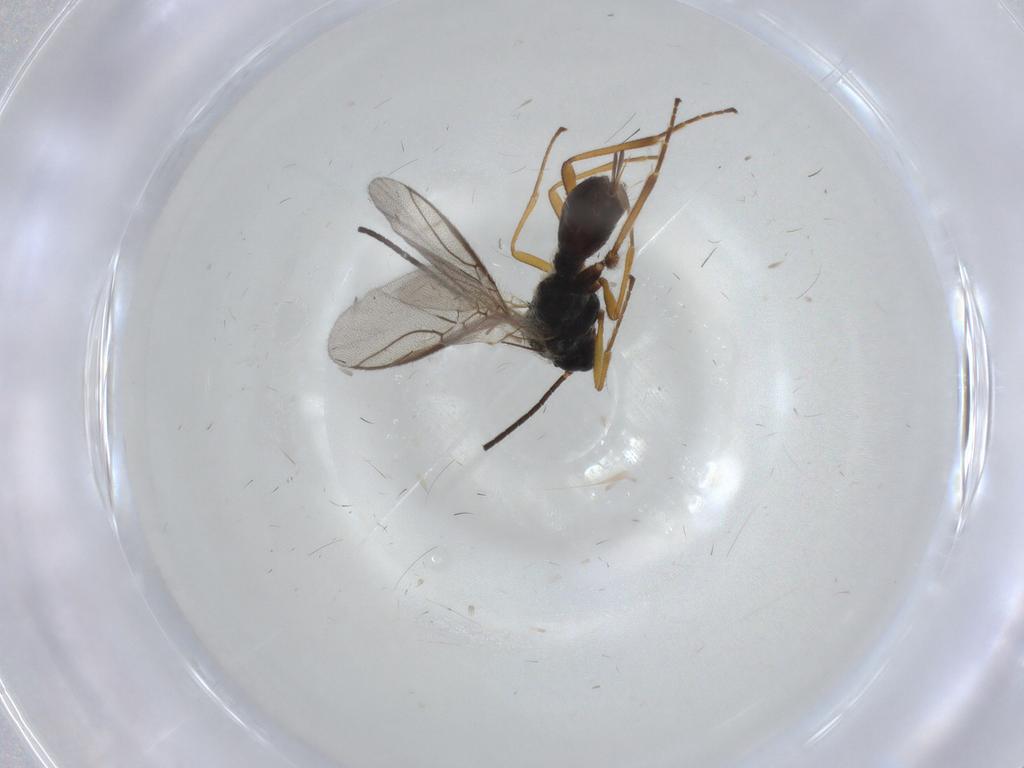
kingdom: Animalia
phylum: Arthropoda
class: Insecta
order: Hymenoptera
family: Braconidae
